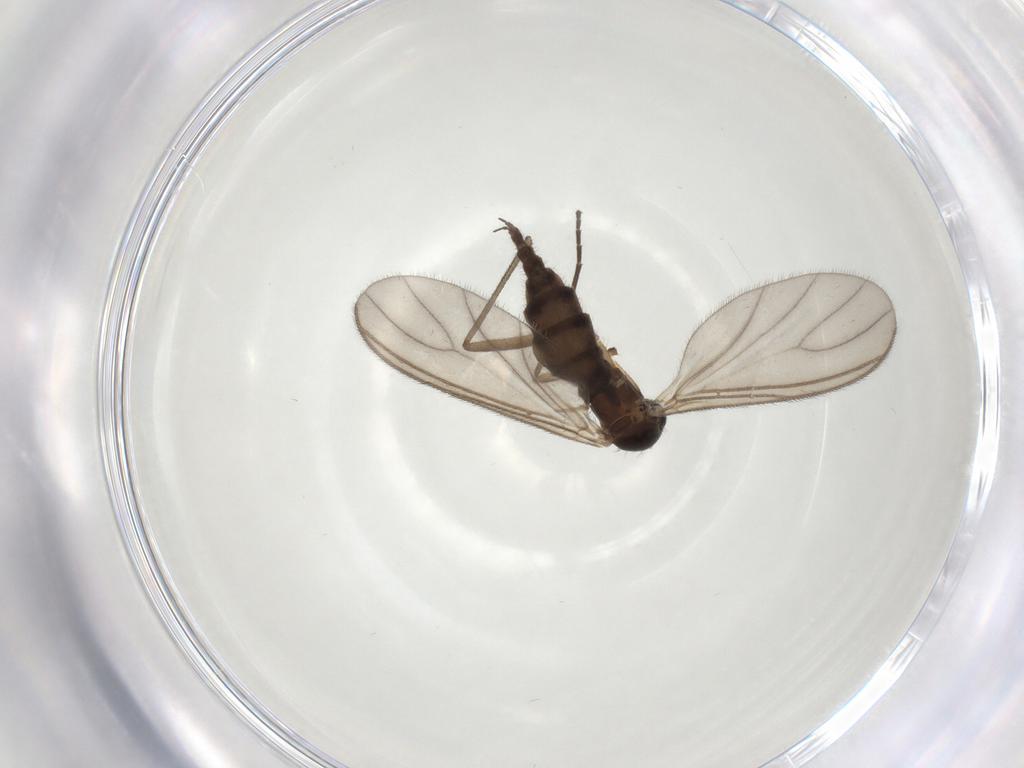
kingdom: Animalia
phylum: Arthropoda
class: Insecta
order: Diptera
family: Sciaridae
